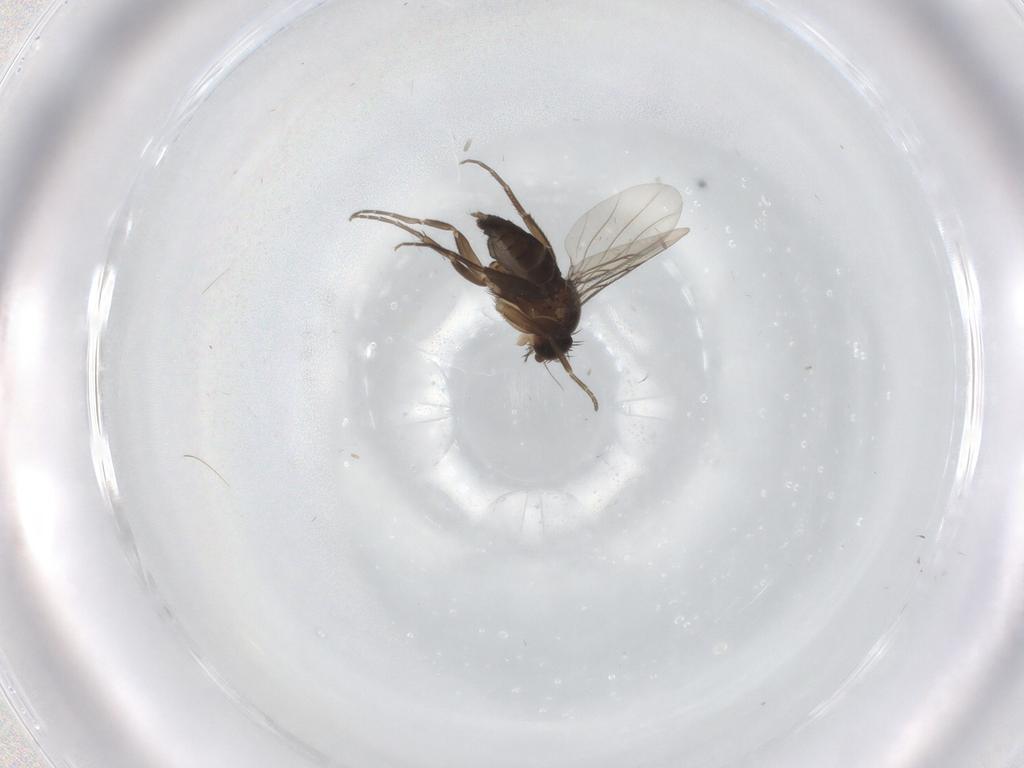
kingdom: Animalia
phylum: Arthropoda
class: Insecta
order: Diptera
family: Phoridae
